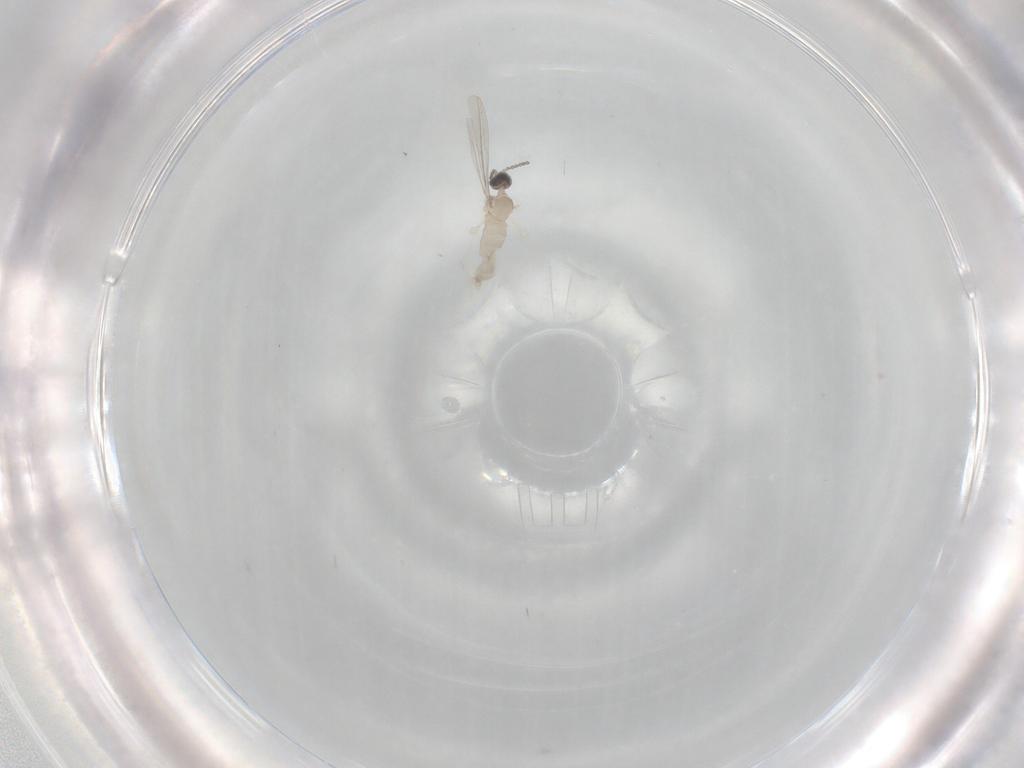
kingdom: Animalia
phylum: Arthropoda
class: Insecta
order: Diptera
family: Cecidomyiidae
